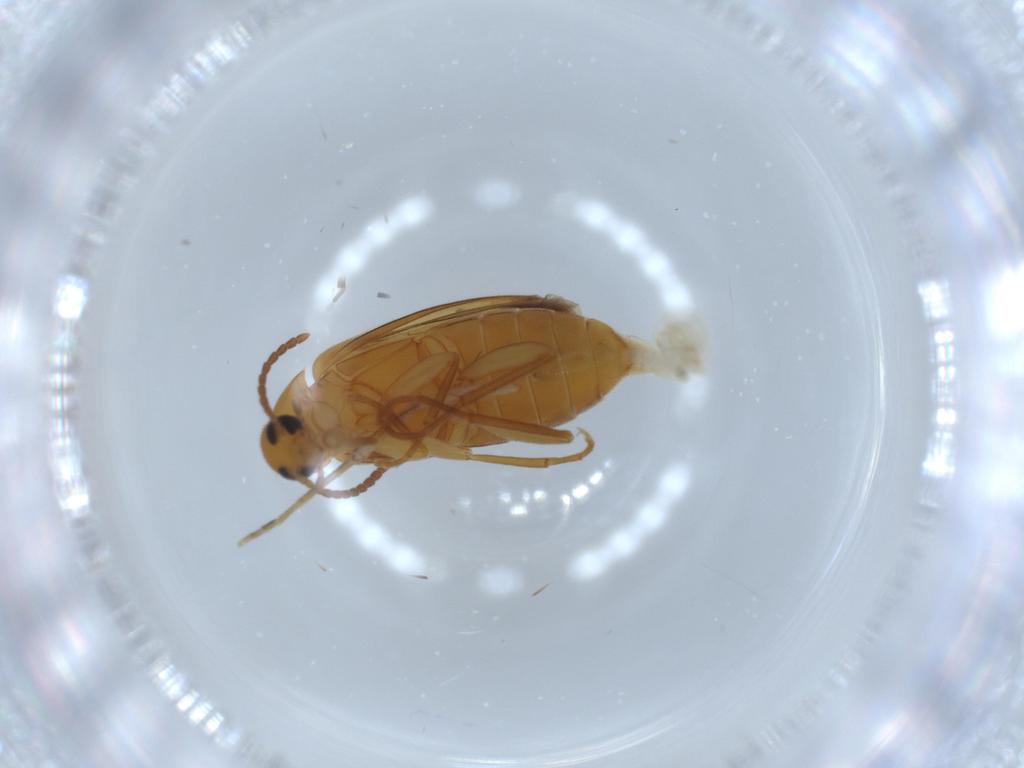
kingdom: Animalia
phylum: Arthropoda
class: Insecta
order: Coleoptera
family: Scraptiidae
